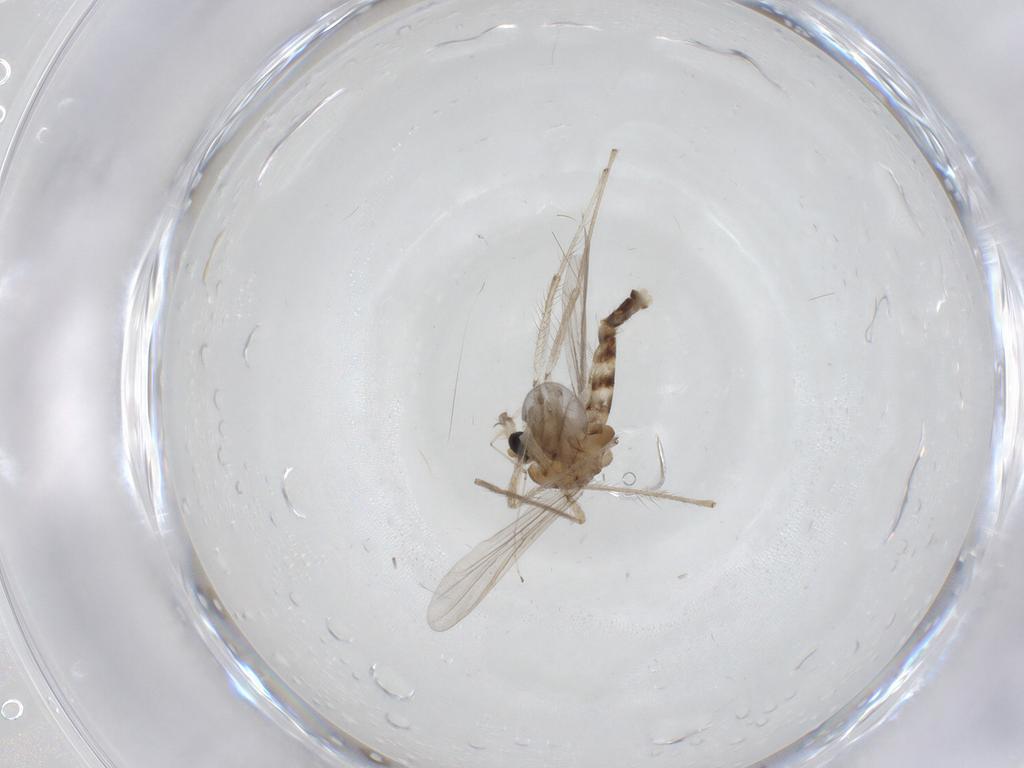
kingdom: Animalia
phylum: Arthropoda
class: Insecta
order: Diptera
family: Chironomidae
